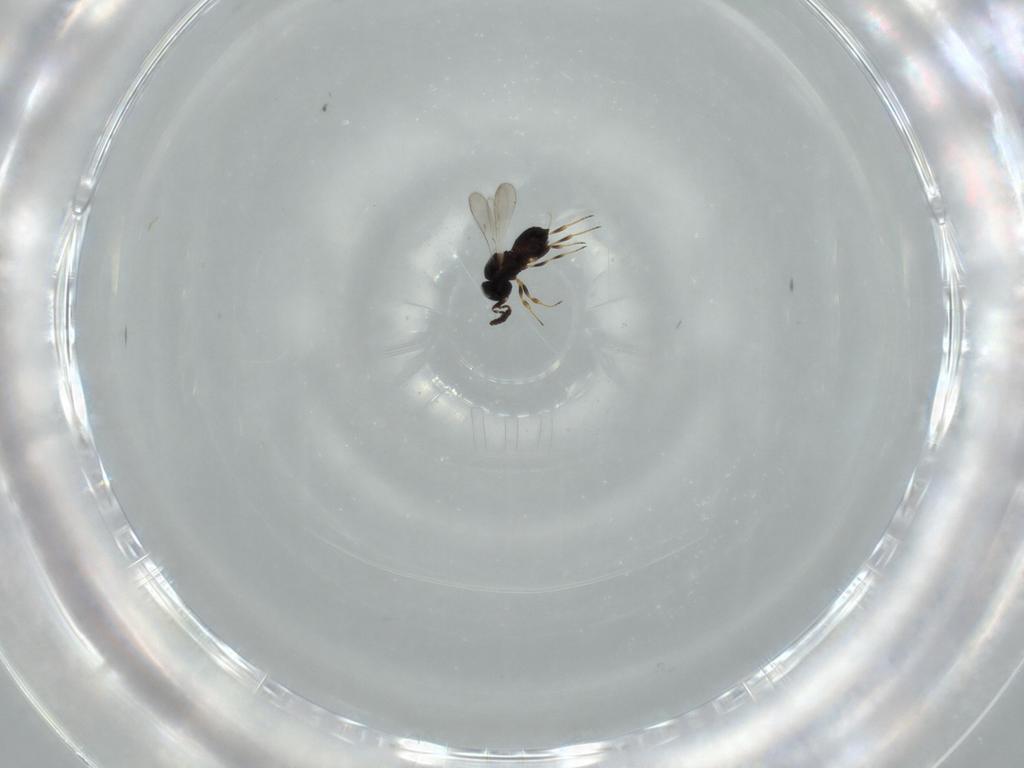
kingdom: Animalia
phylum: Arthropoda
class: Insecta
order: Hymenoptera
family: Scelionidae
